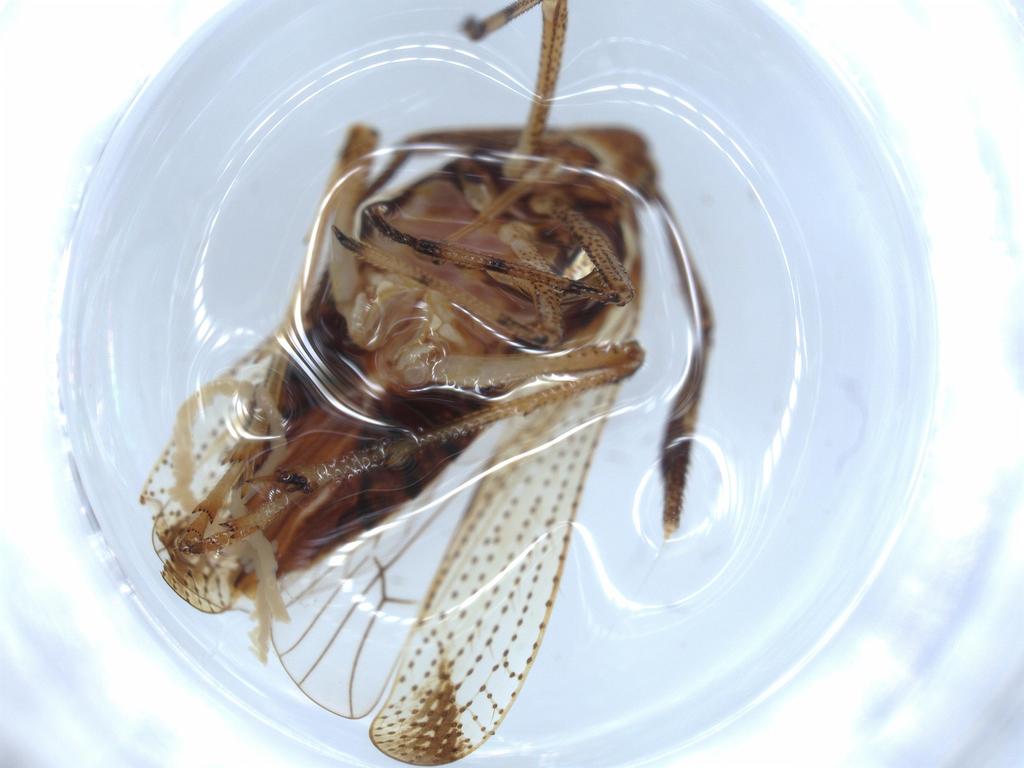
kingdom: Animalia
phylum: Arthropoda
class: Insecta
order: Hemiptera
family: Delphacidae
